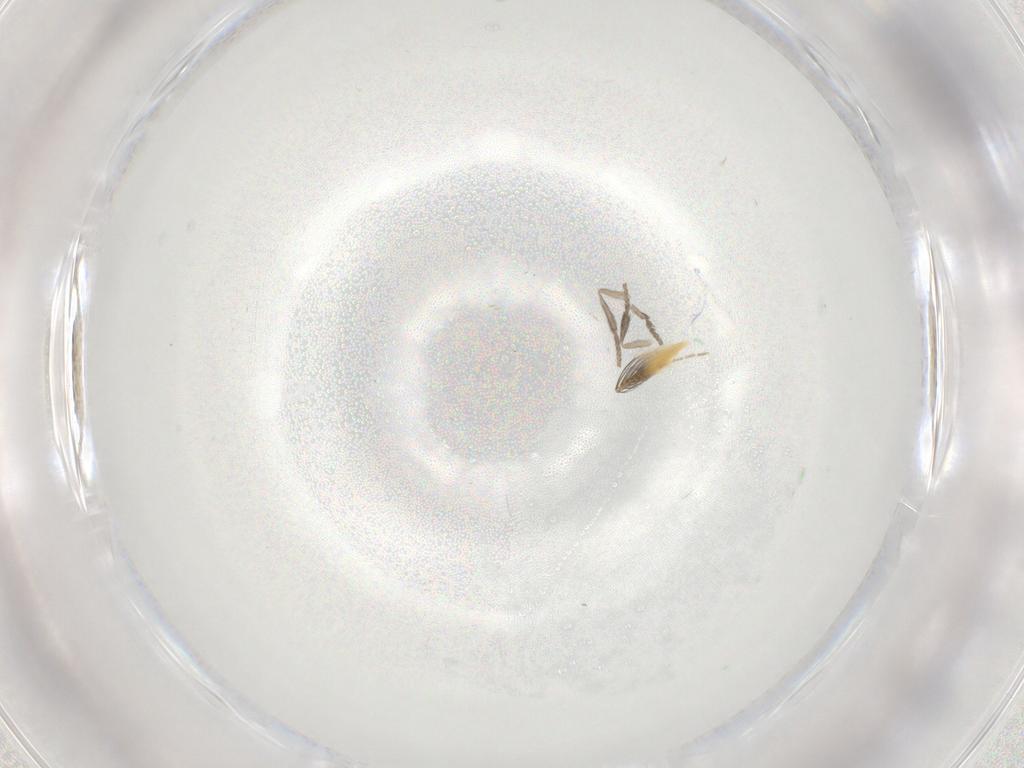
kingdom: Animalia
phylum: Arthropoda
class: Insecta
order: Diptera
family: Psychodidae
